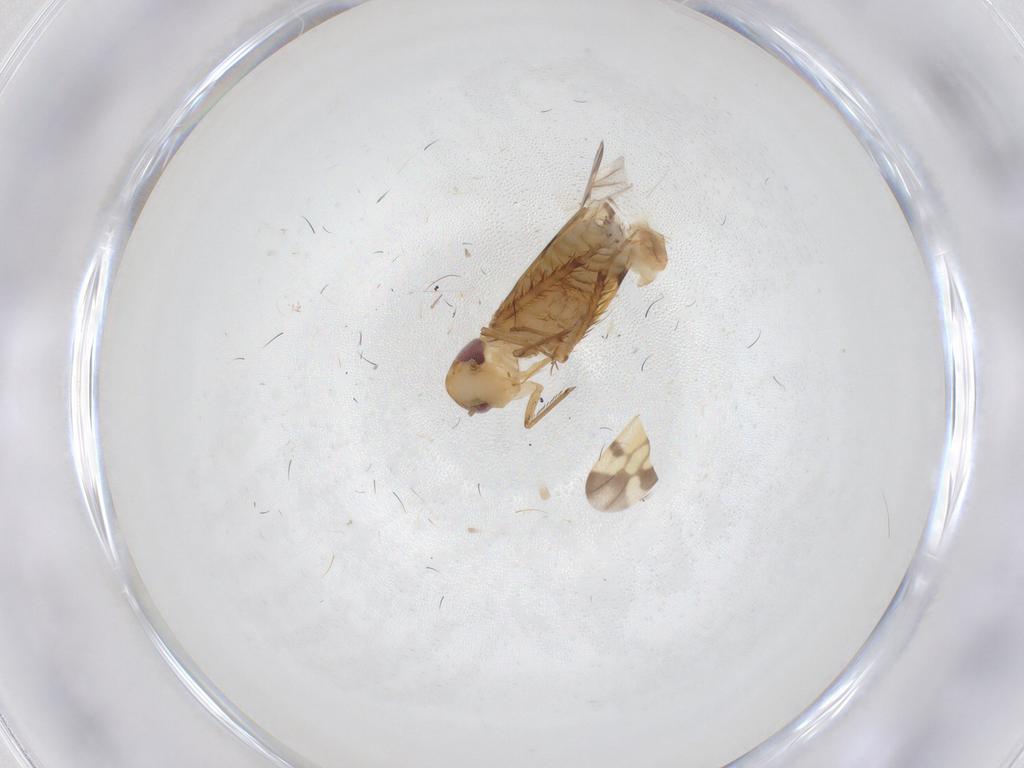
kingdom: Animalia
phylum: Arthropoda
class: Insecta
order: Hemiptera
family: Cicadellidae
